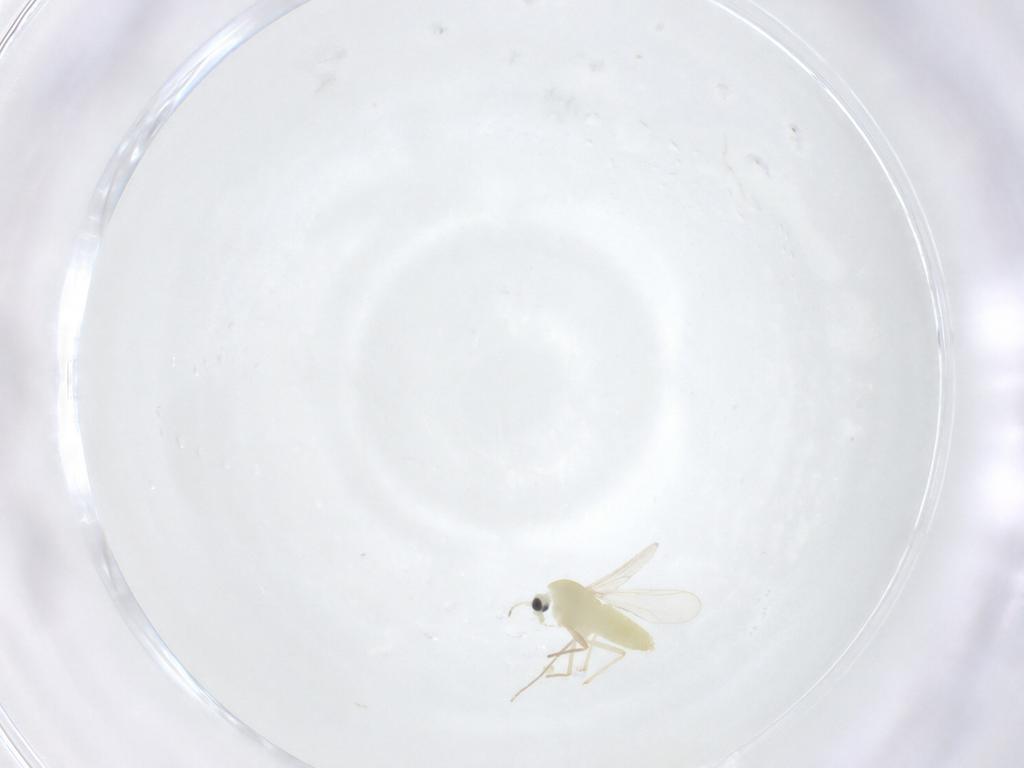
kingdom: Animalia
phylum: Arthropoda
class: Insecta
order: Diptera
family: Chironomidae
